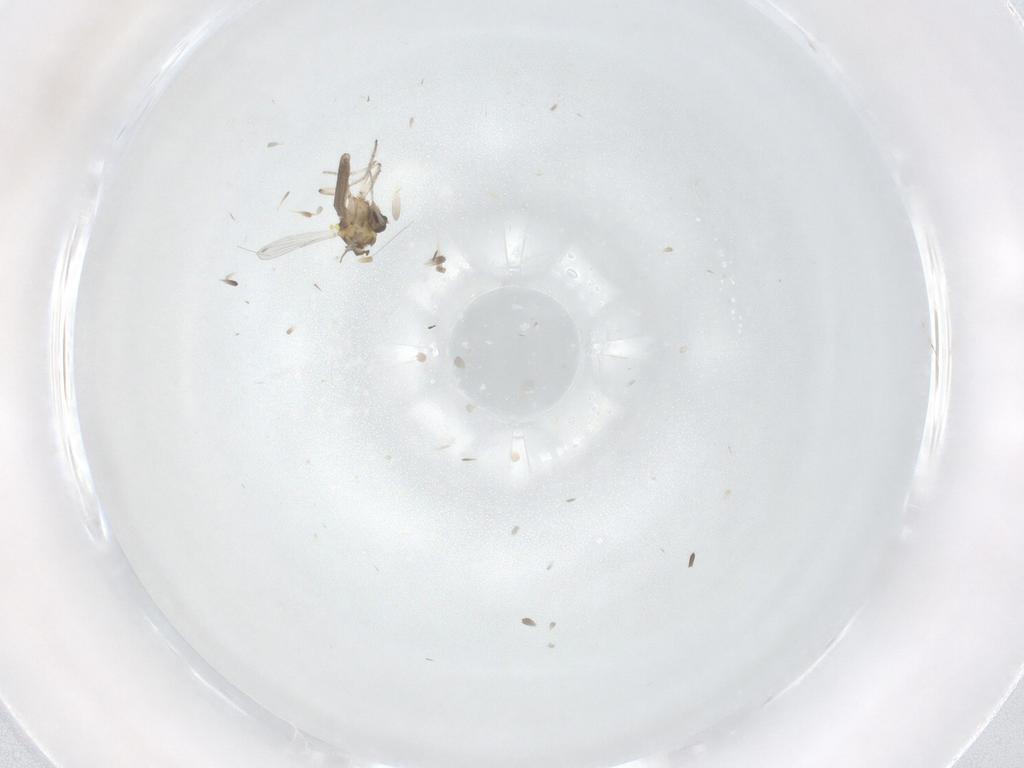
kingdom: Animalia
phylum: Arthropoda
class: Insecta
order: Diptera
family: Ceratopogonidae
